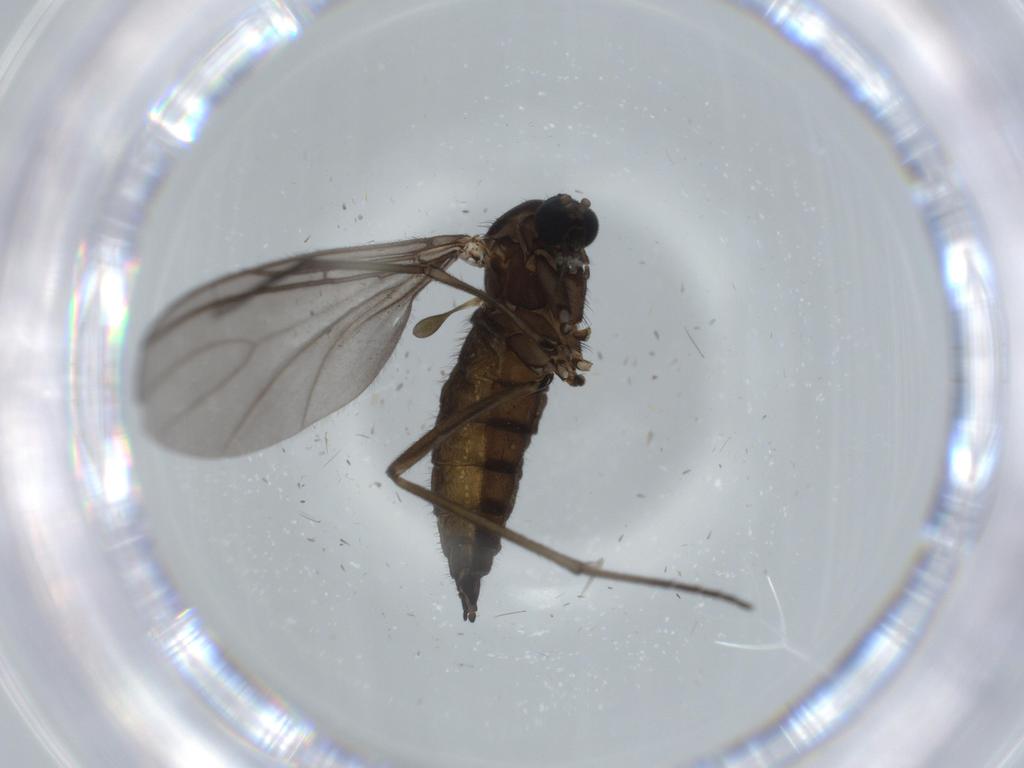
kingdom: Animalia
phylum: Arthropoda
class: Insecta
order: Diptera
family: Sciaridae
